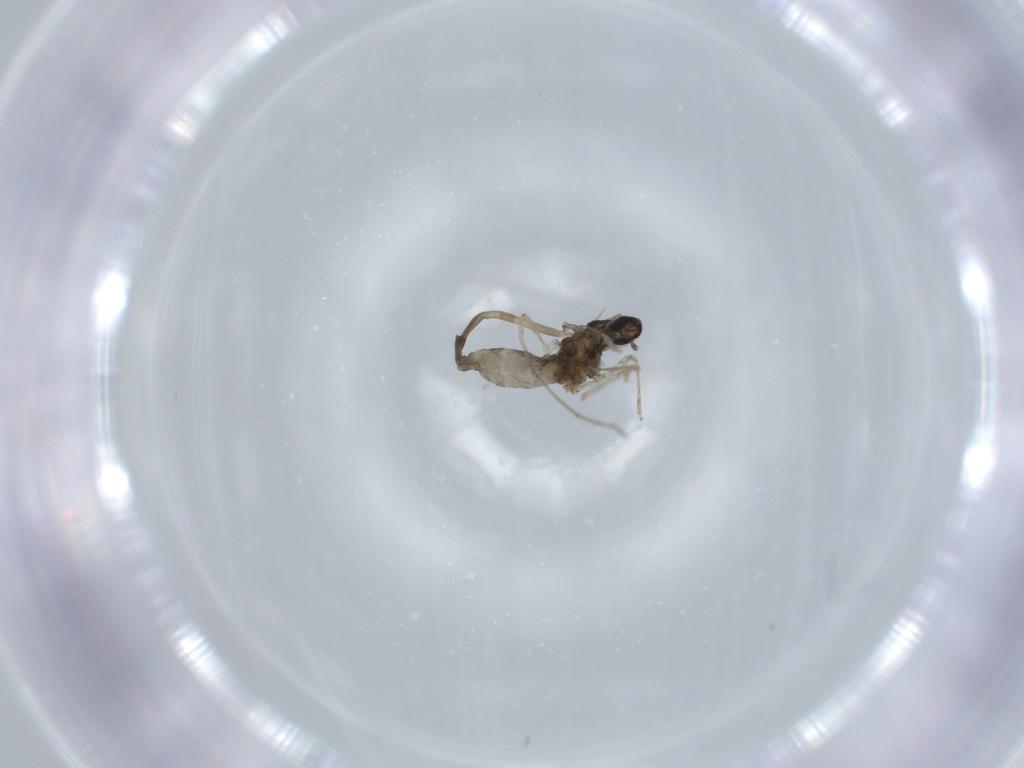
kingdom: Animalia
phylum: Arthropoda
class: Insecta
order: Diptera
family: Cecidomyiidae
